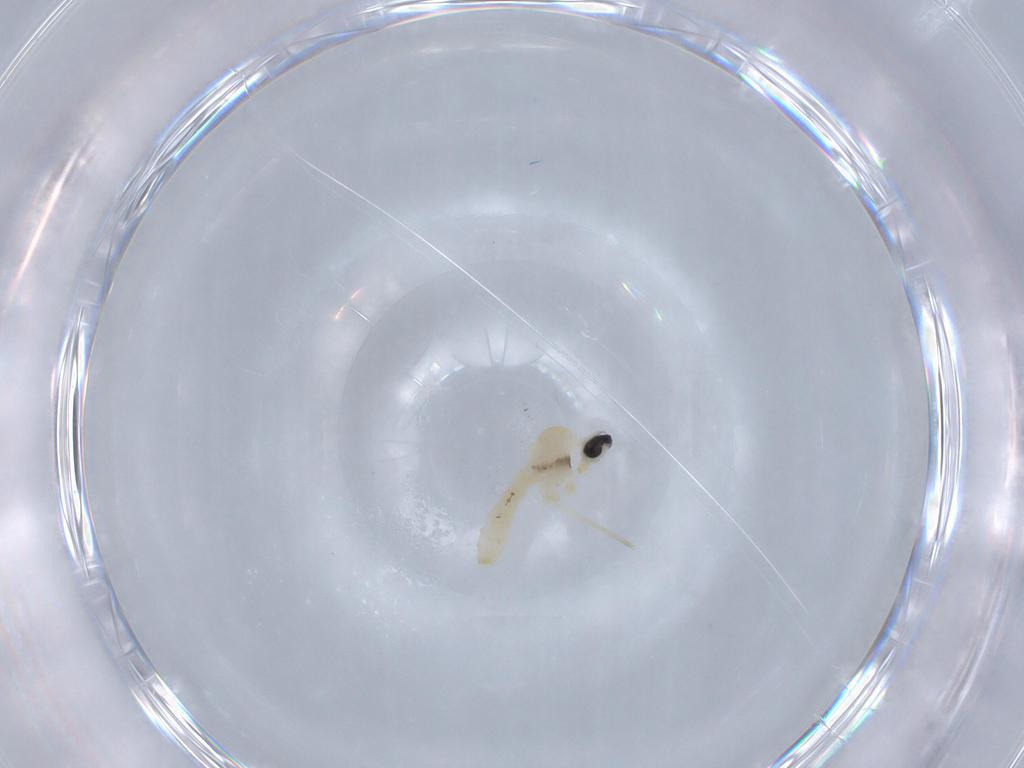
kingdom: Animalia
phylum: Arthropoda
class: Insecta
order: Diptera
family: Cecidomyiidae
